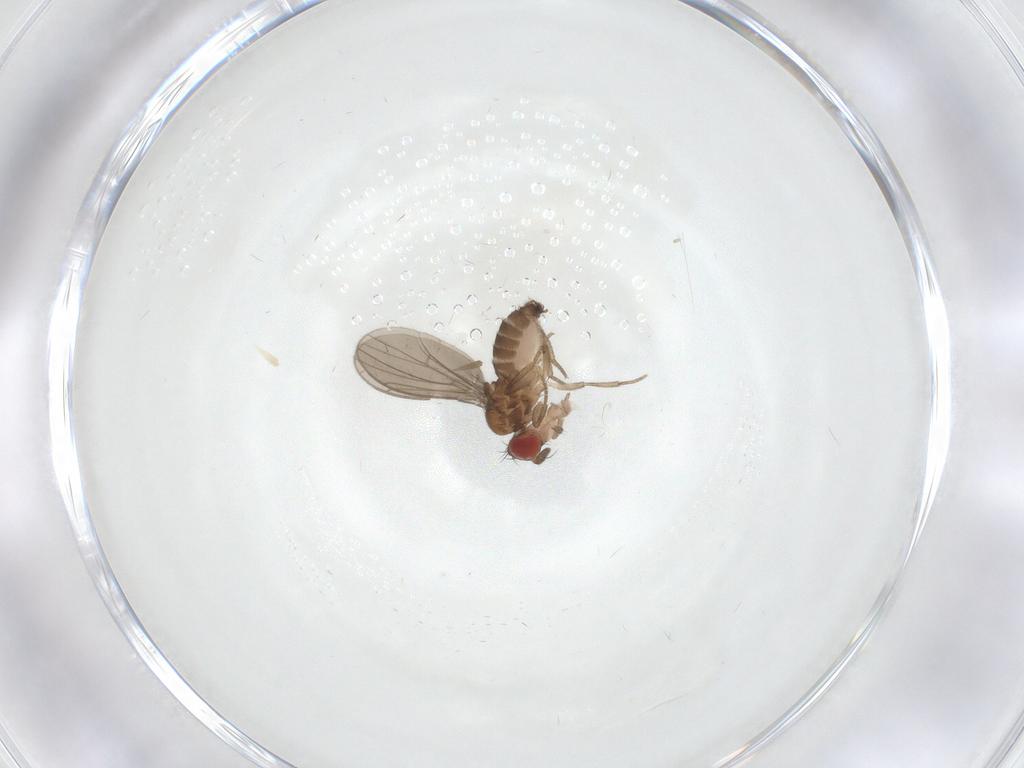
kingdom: Animalia
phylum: Arthropoda
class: Insecta
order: Diptera
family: Drosophilidae
